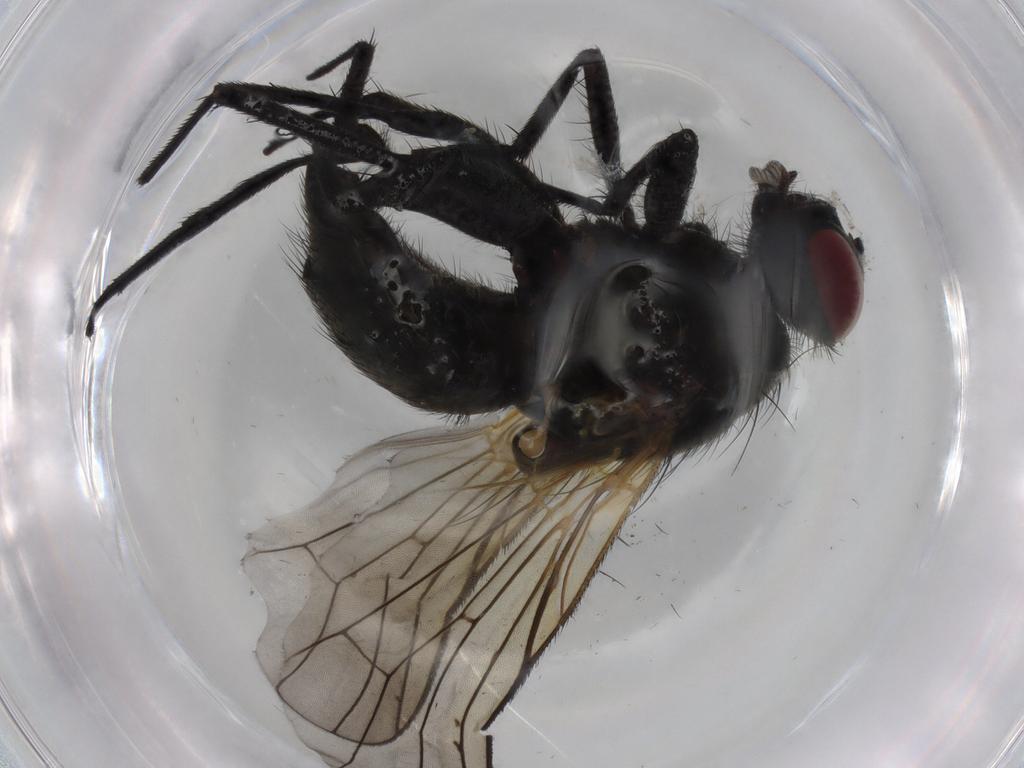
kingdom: Animalia
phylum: Arthropoda
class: Insecta
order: Diptera
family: Muscidae
